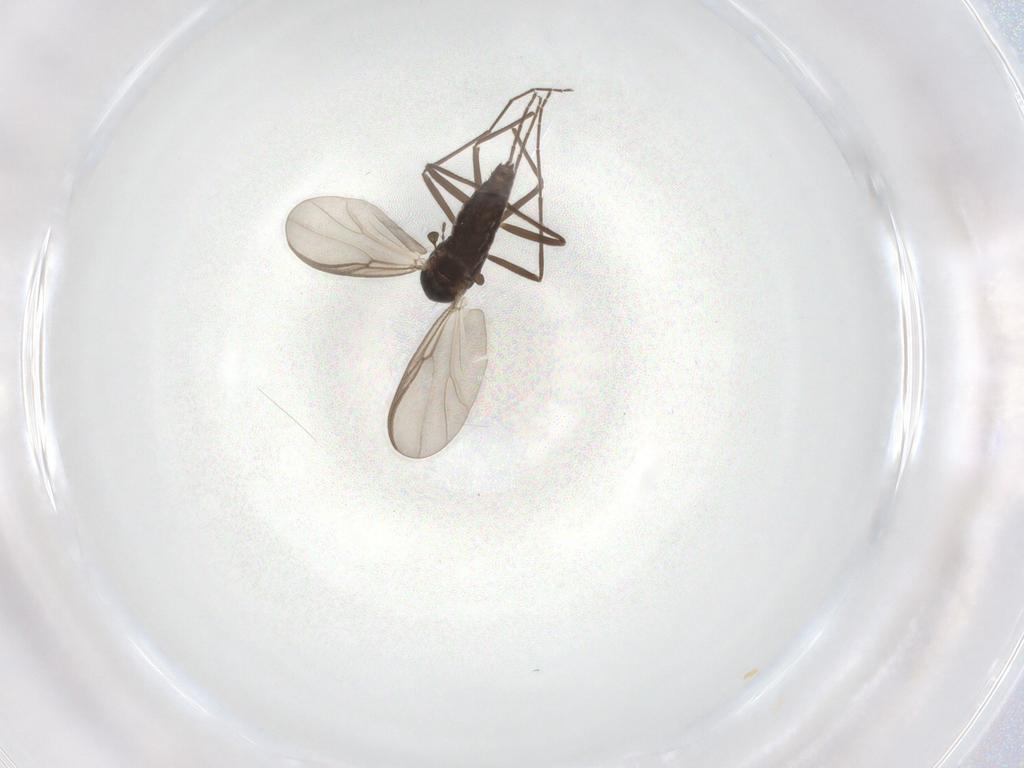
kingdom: Animalia
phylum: Arthropoda
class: Insecta
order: Diptera
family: Chironomidae
